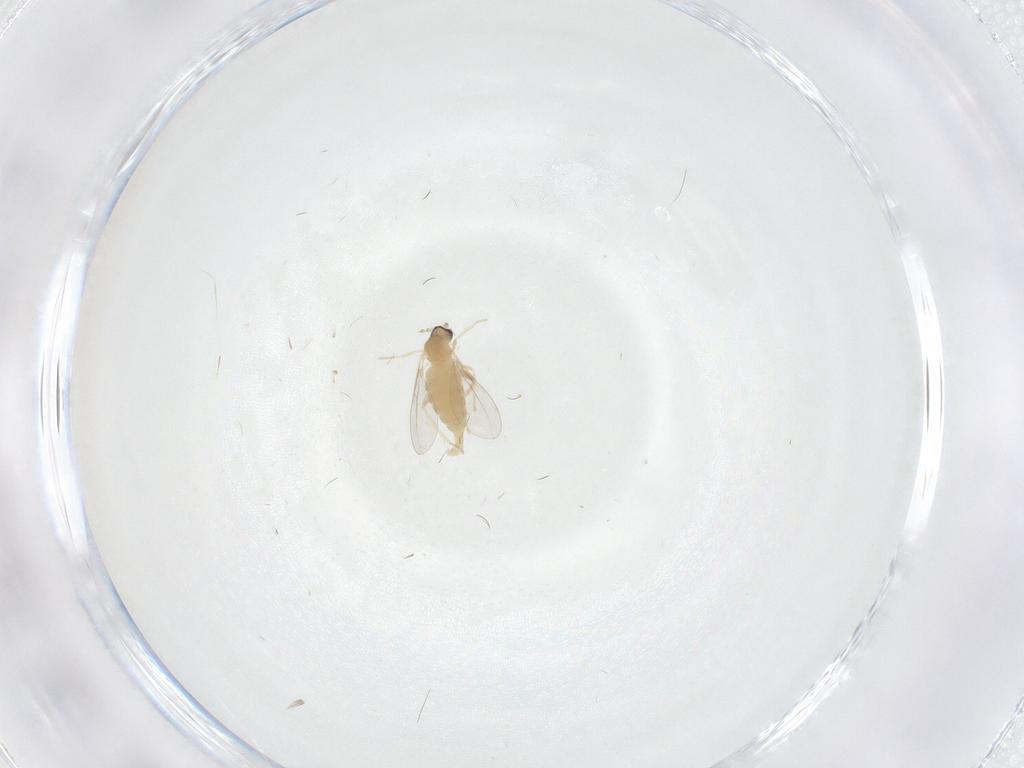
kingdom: Animalia
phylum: Arthropoda
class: Insecta
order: Diptera
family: Cecidomyiidae
